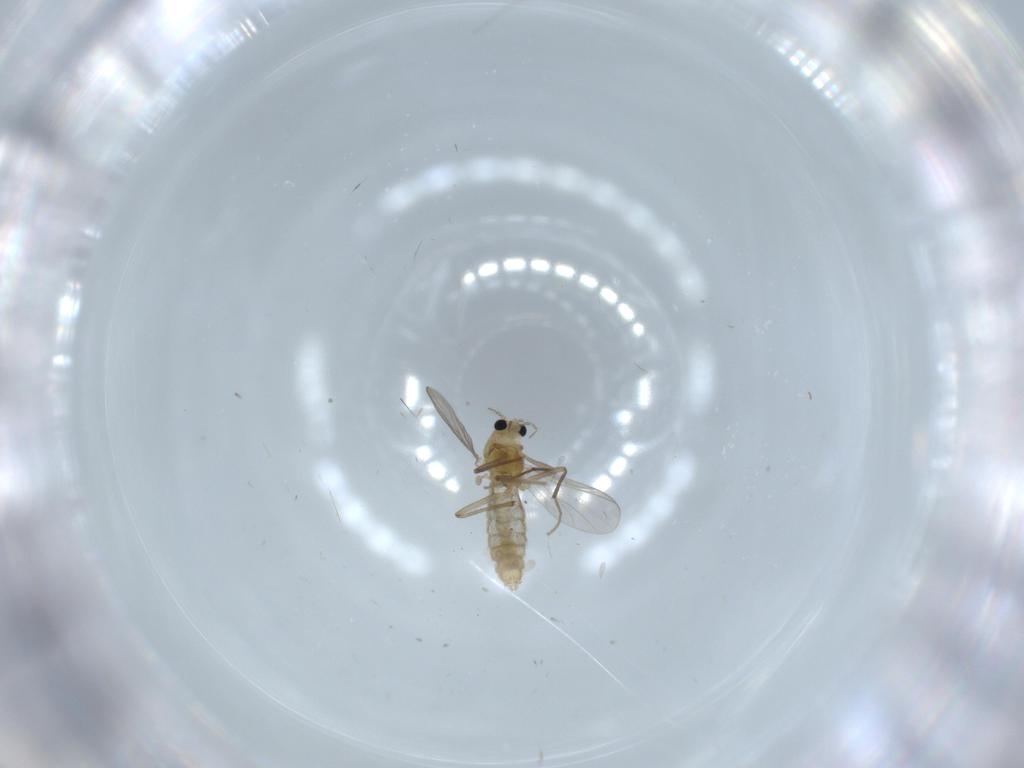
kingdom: Animalia
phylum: Arthropoda
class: Insecta
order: Diptera
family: Chironomidae
